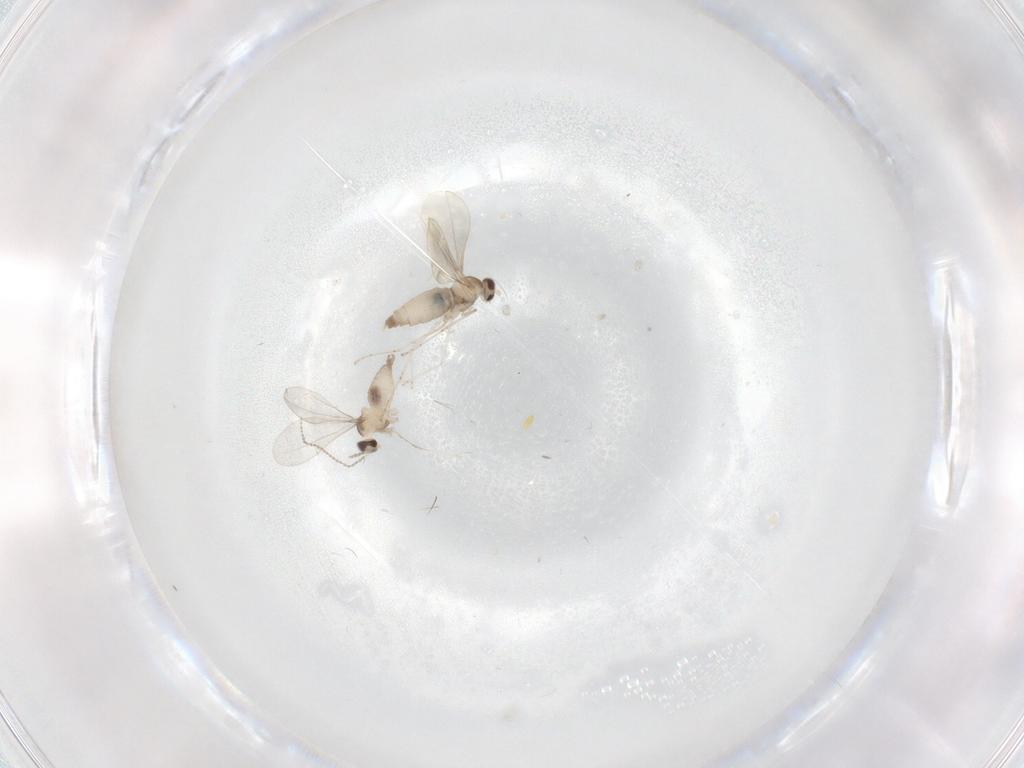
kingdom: Animalia
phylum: Arthropoda
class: Insecta
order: Diptera
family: Cecidomyiidae
